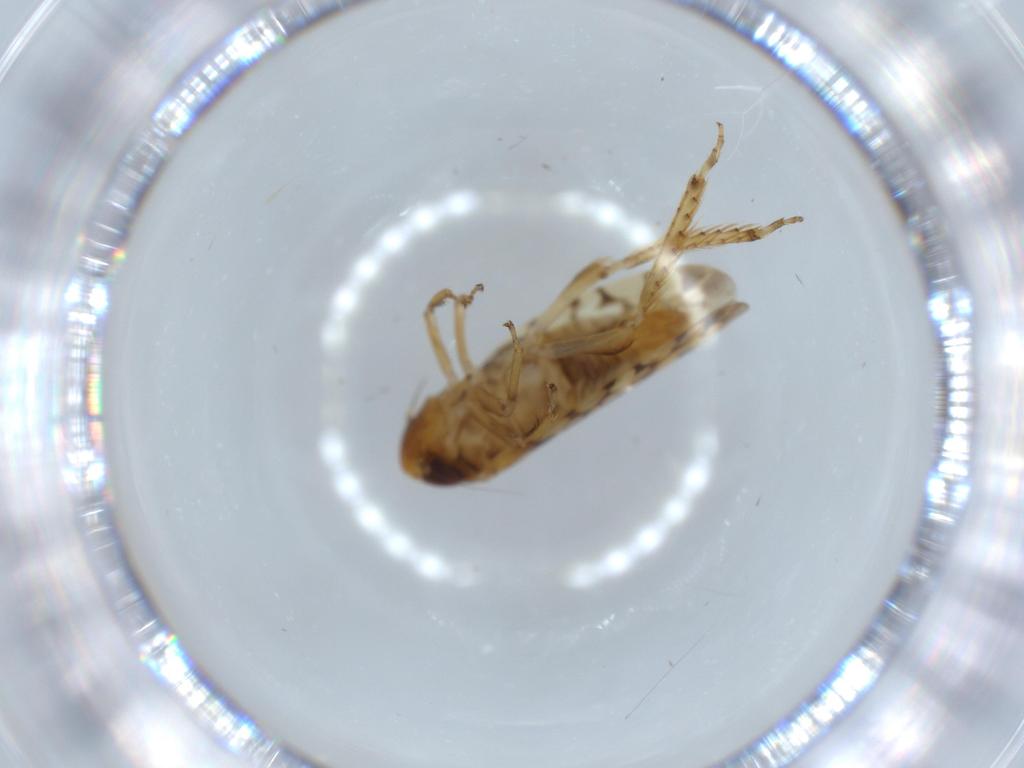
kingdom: Animalia
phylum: Arthropoda
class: Insecta
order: Hemiptera
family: Cicadellidae
